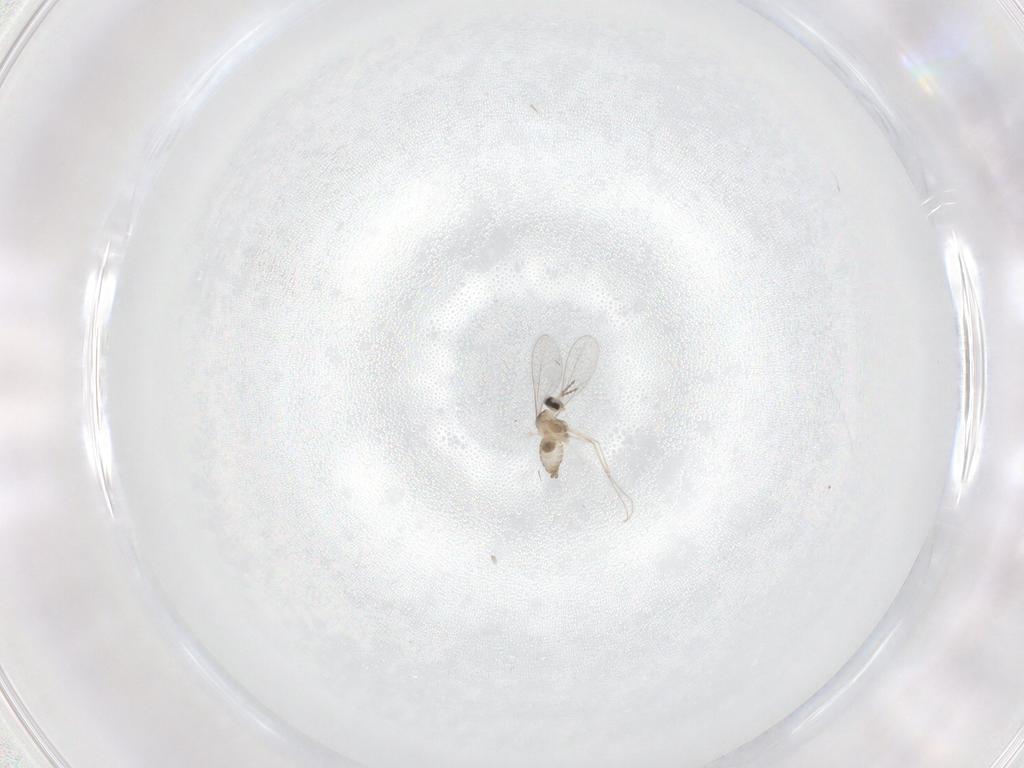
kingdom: Animalia
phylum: Arthropoda
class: Insecta
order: Diptera
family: Cecidomyiidae
